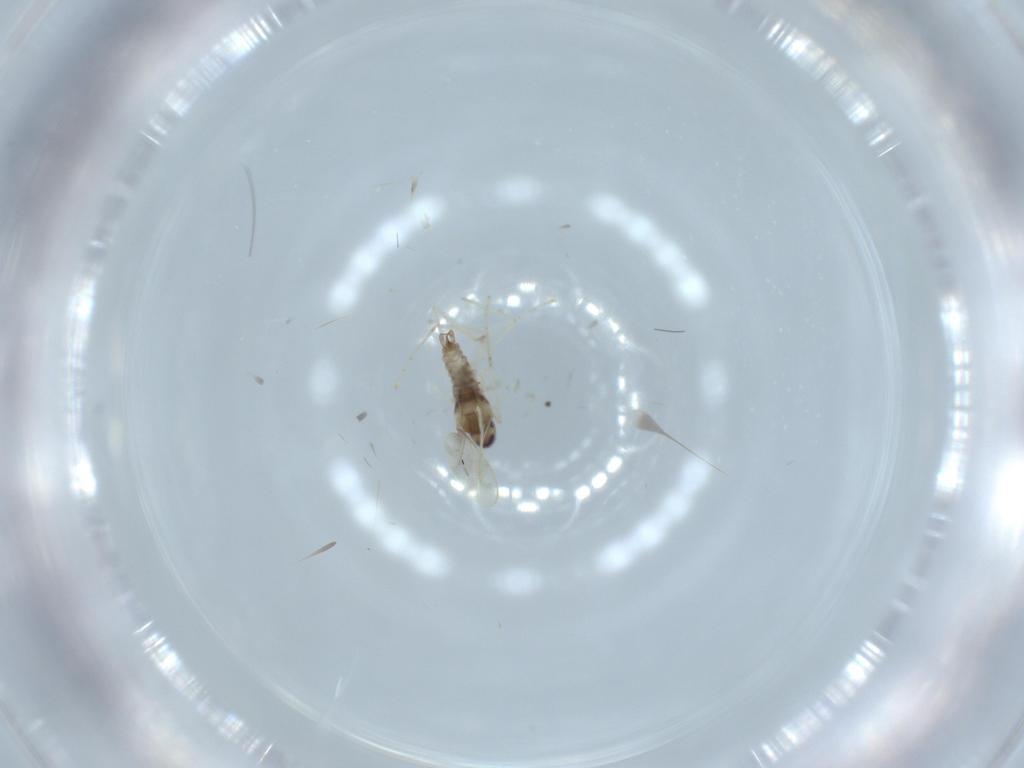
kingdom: Animalia
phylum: Arthropoda
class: Insecta
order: Diptera
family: Cecidomyiidae
